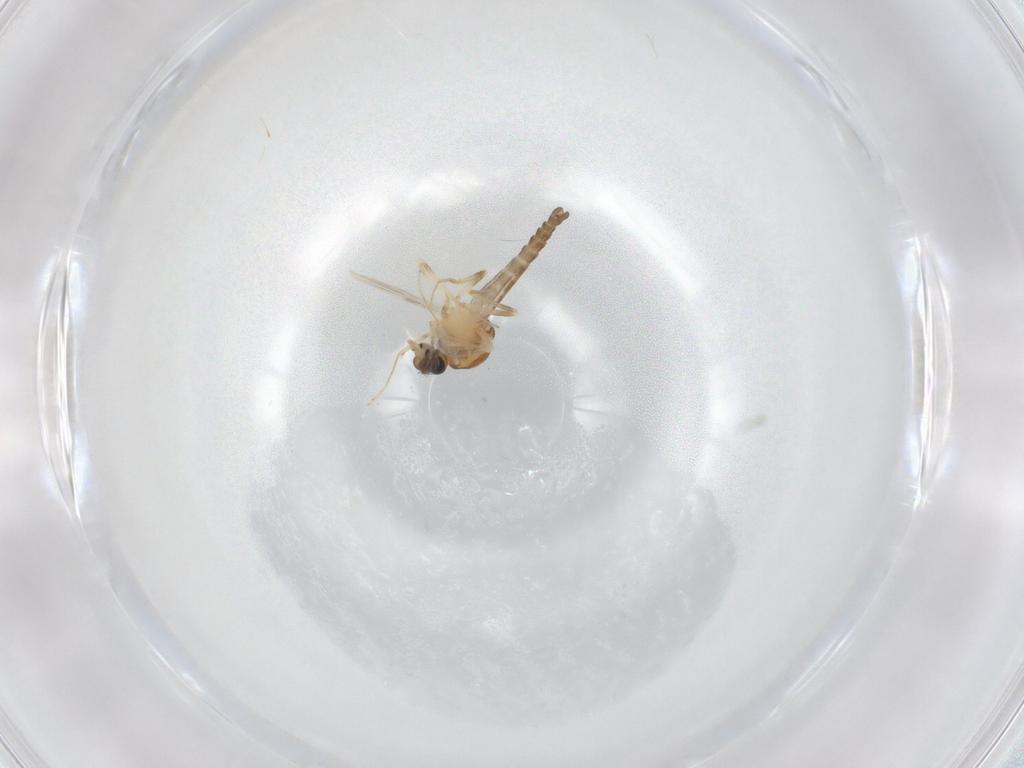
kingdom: Animalia
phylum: Arthropoda
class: Insecta
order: Diptera
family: Ceratopogonidae
